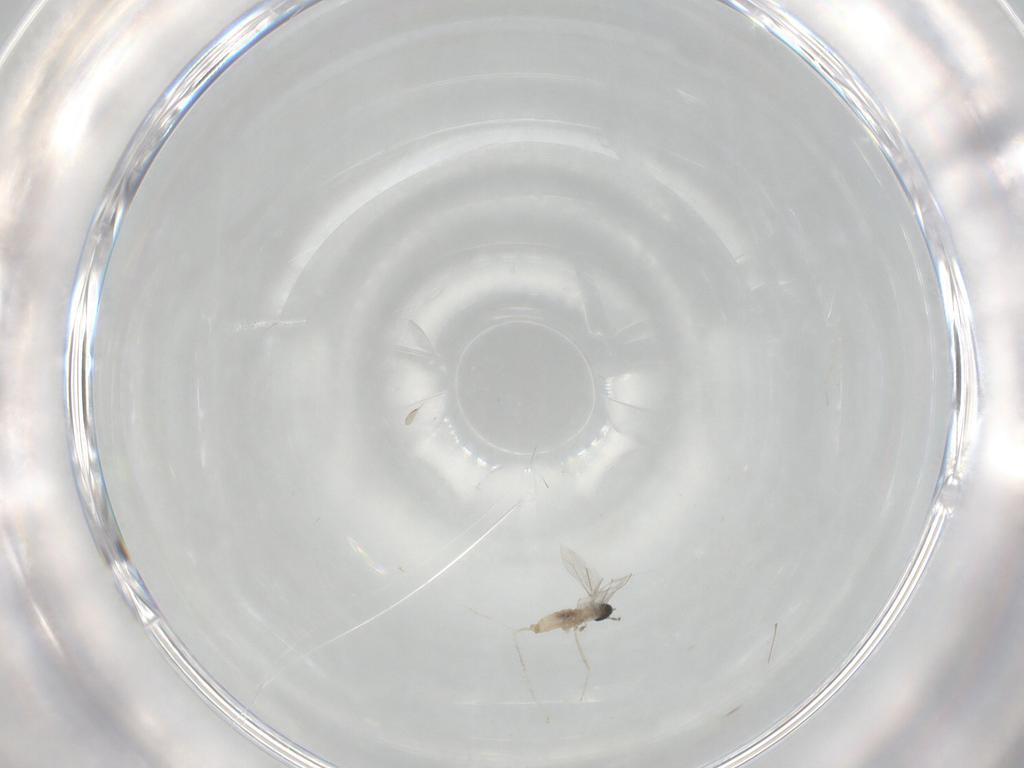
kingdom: Animalia
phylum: Arthropoda
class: Insecta
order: Diptera
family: Cecidomyiidae
